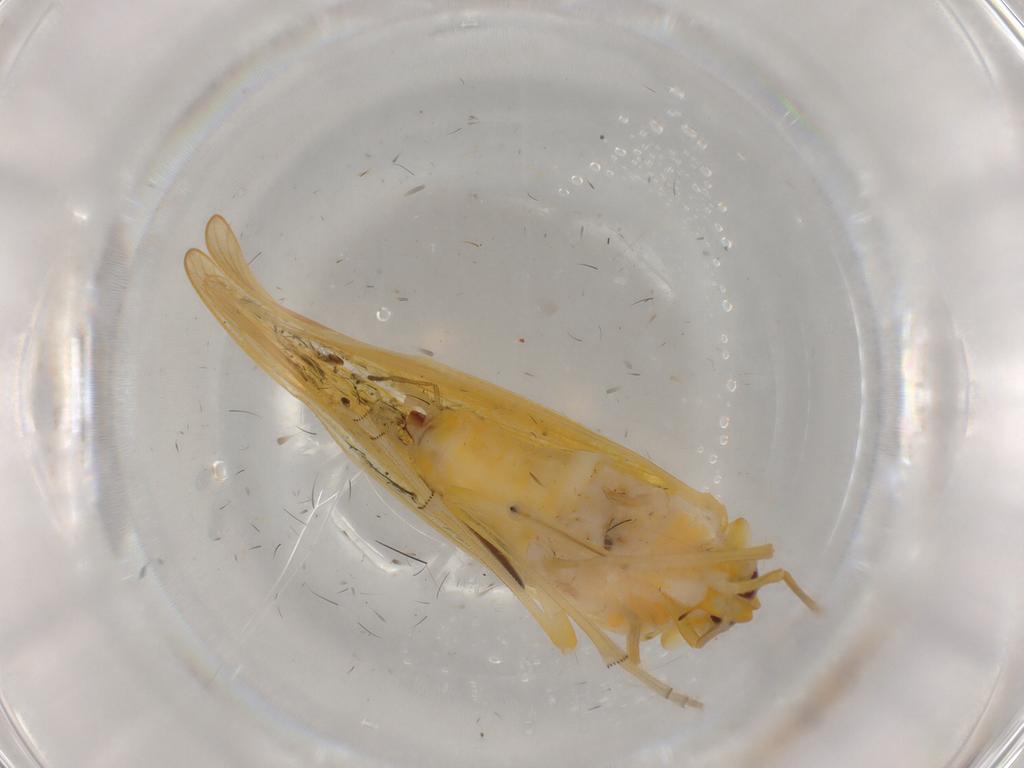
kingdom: Animalia
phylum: Arthropoda
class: Insecta
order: Hemiptera
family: Derbidae
